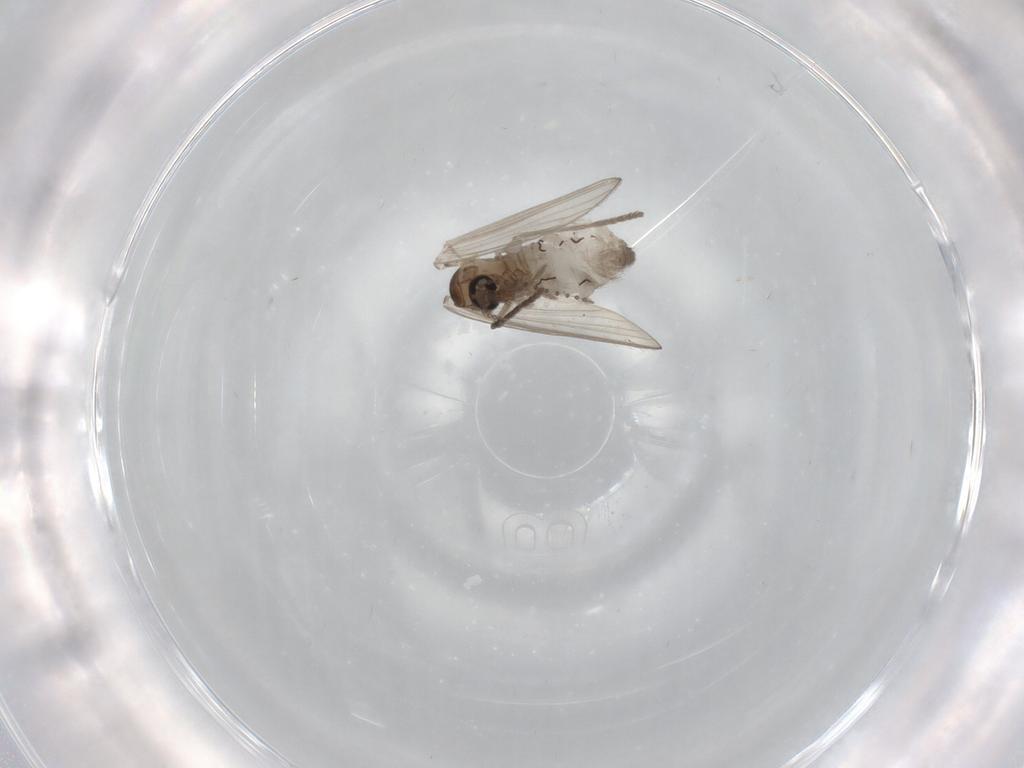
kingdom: Animalia
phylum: Arthropoda
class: Insecta
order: Diptera
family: Psychodidae
